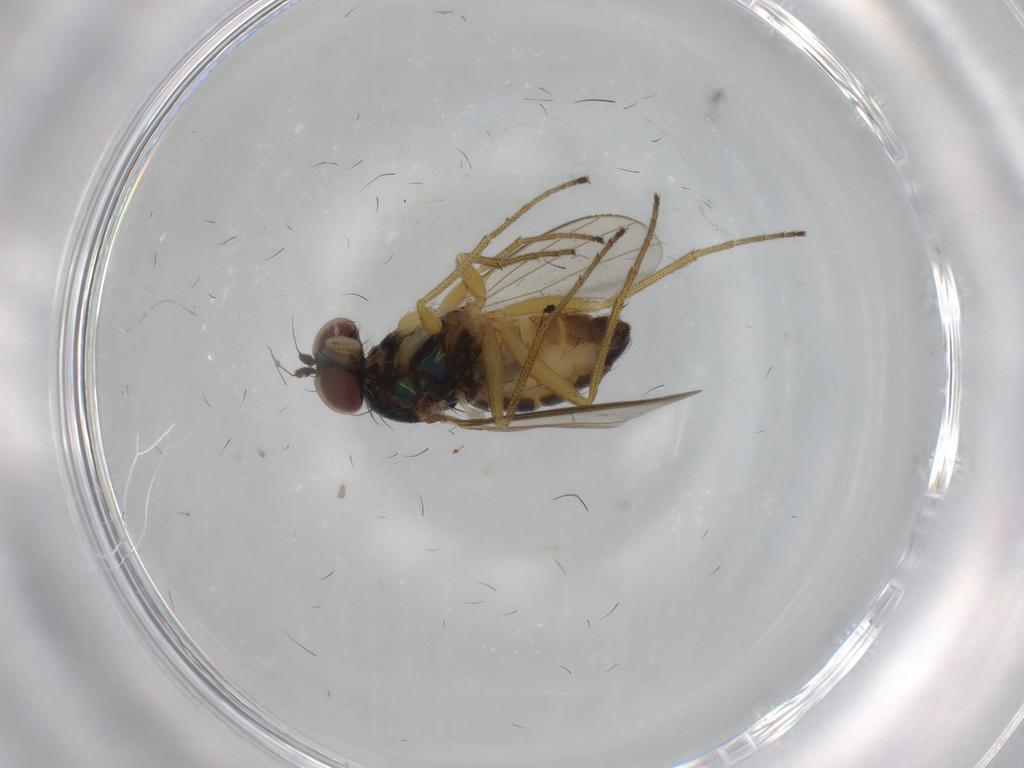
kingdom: Animalia
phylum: Arthropoda
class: Insecta
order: Diptera
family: Dolichopodidae
